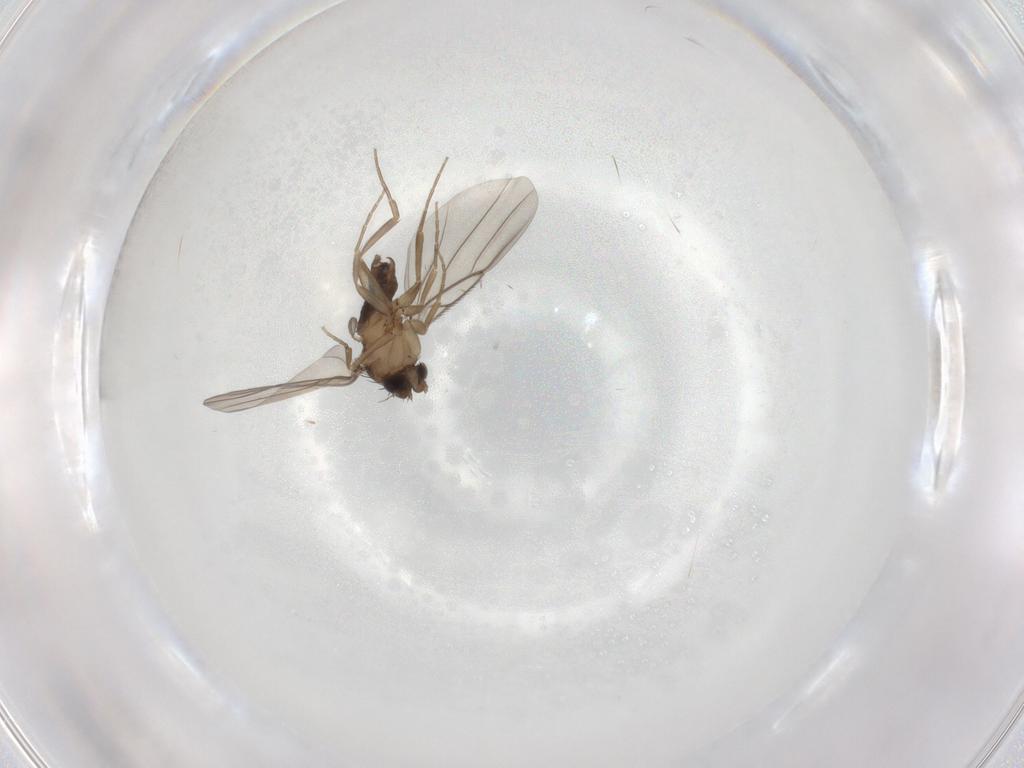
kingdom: Animalia
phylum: Arthropoda
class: Insecta
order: Diptera
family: Phoridae
